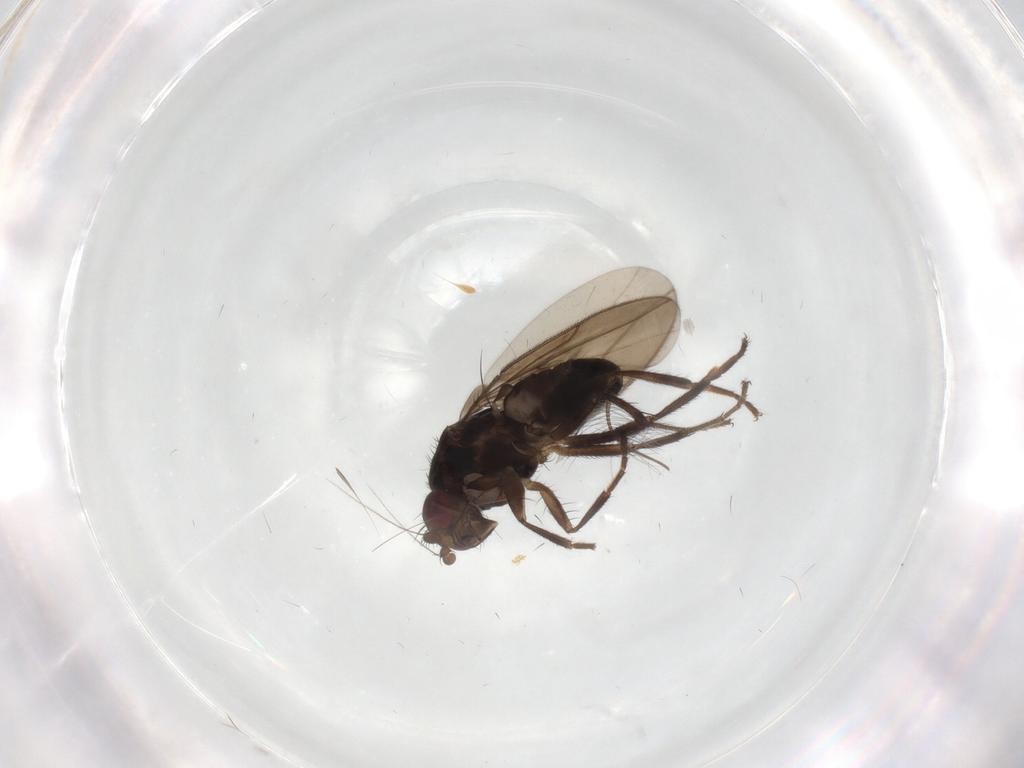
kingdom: Animalia
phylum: Arthropoda
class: Insecta
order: Diptera
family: Sphaeroceridae
